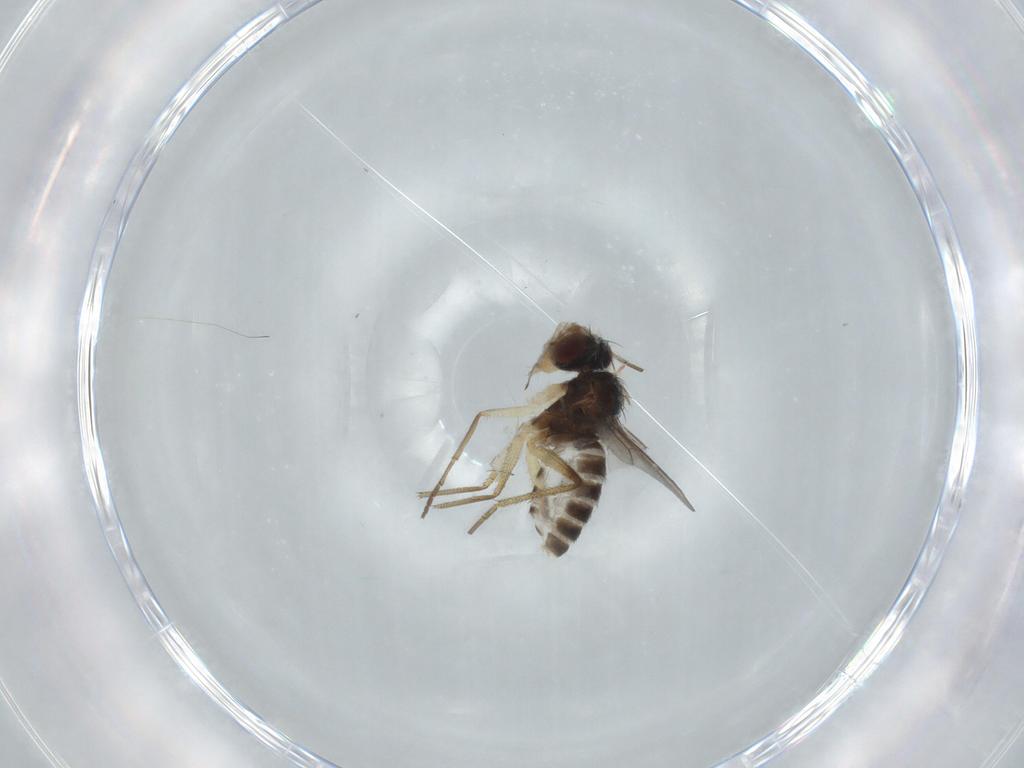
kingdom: Animalia
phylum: Arthropoda
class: Insecta
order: Diptera
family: Dolichopodidae
